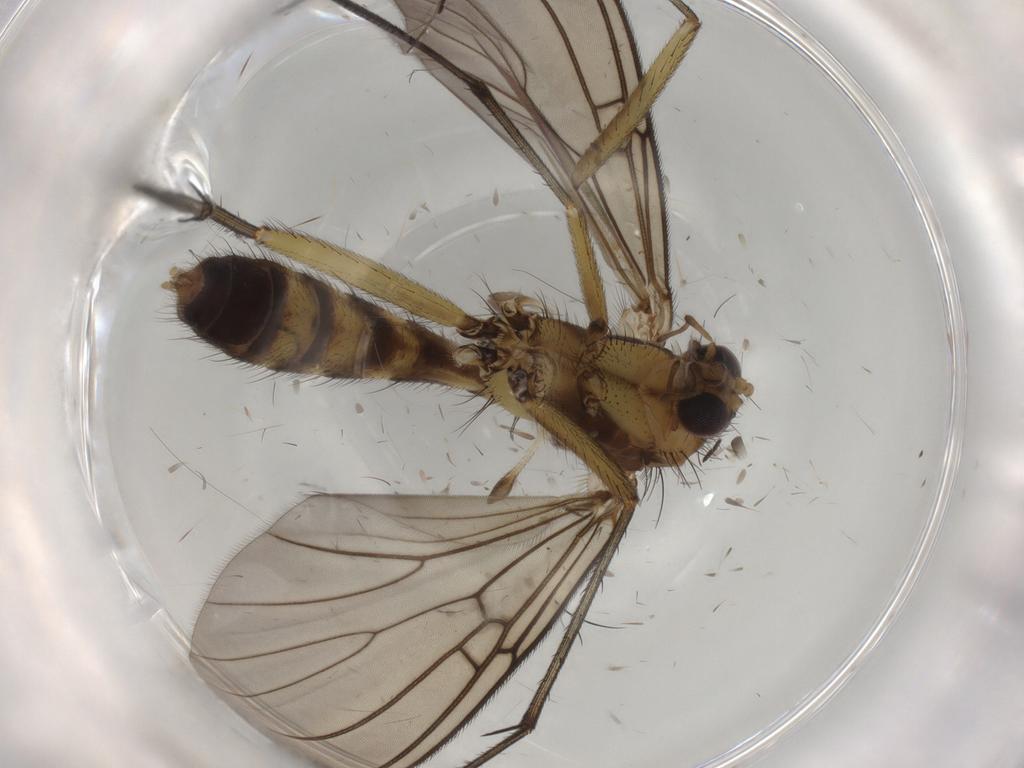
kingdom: Animalia
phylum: Arthropoda
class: Insecta
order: Diptera
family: Mycetophilidae
